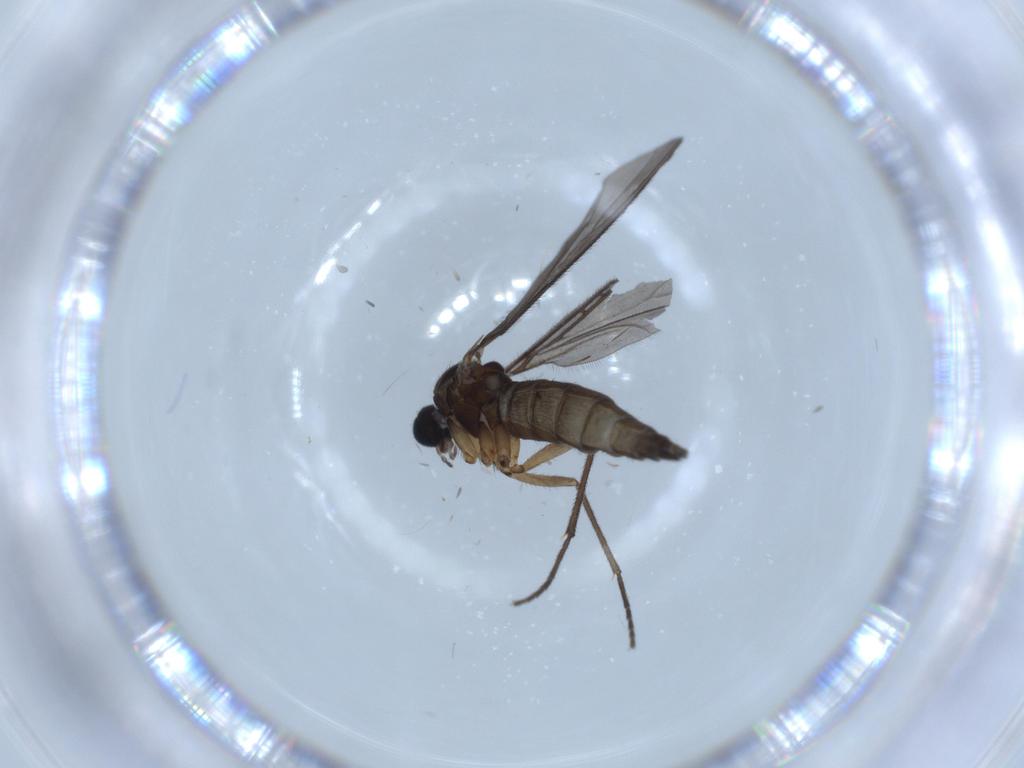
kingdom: Animalia
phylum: Arthropoda
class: Insecta
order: Diptera
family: Sciaridae
